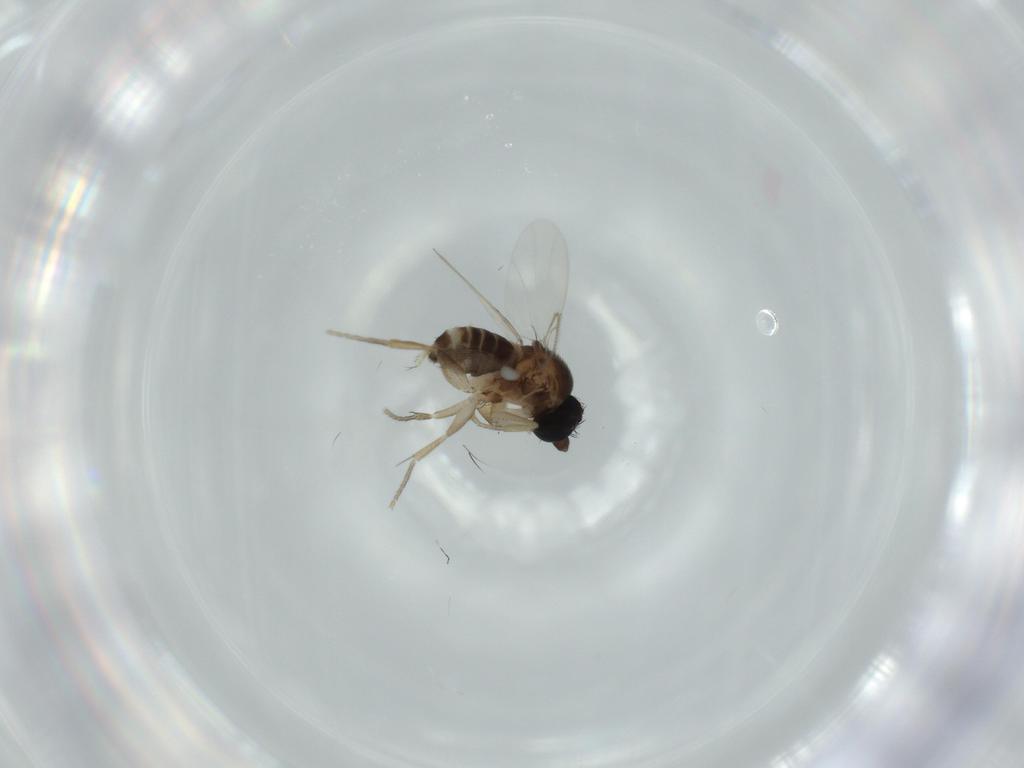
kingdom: Animalia
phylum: Arthropoda
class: Insecta
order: Diptera
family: Phoridae
